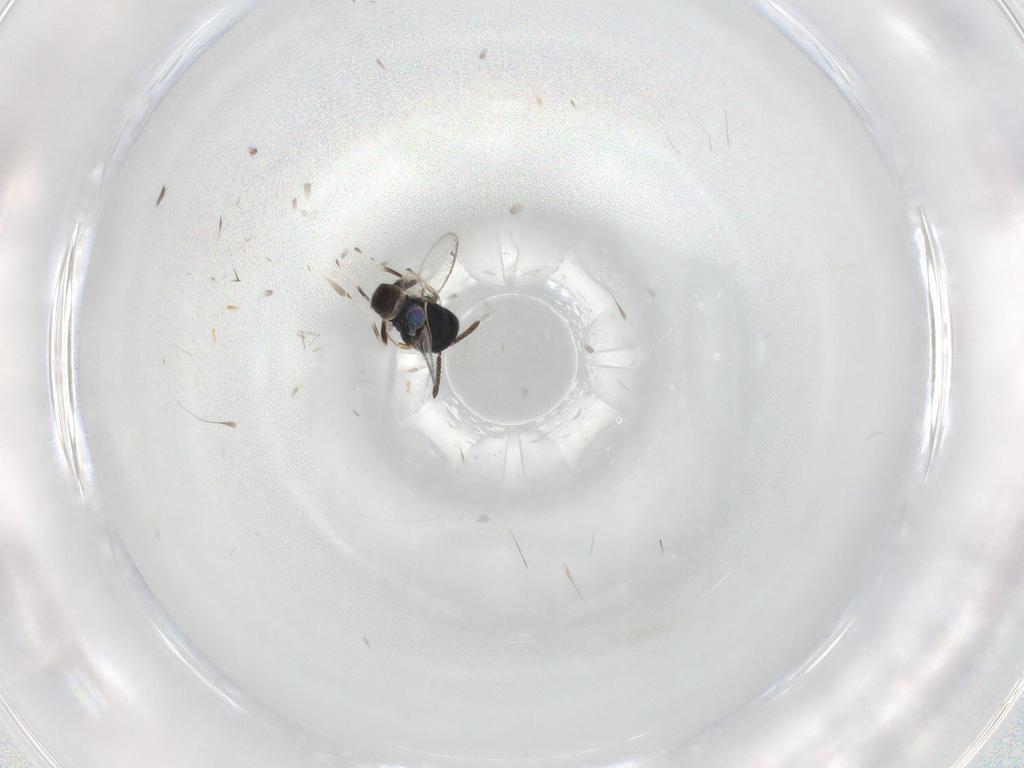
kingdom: Animalia
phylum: Arthropoda
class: Insecta
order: Hymenoptera
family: Pteromalidae
